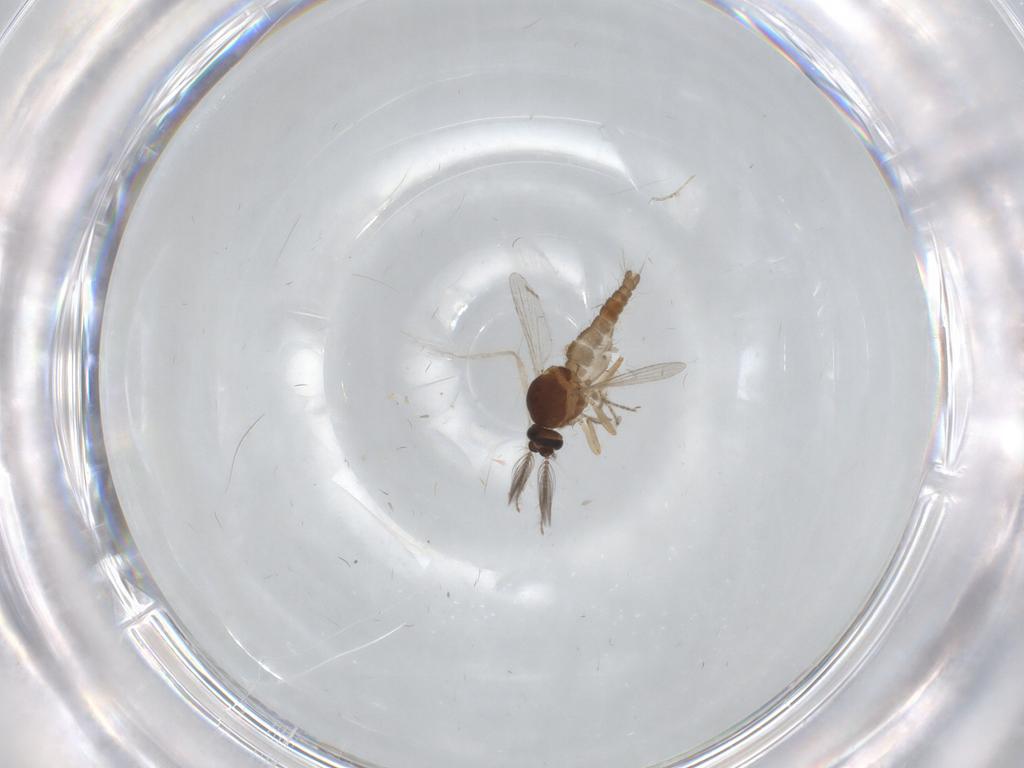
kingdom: Animalia
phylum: Arthropoda
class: Insecta
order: Diptera
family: Ceratopogonidae
